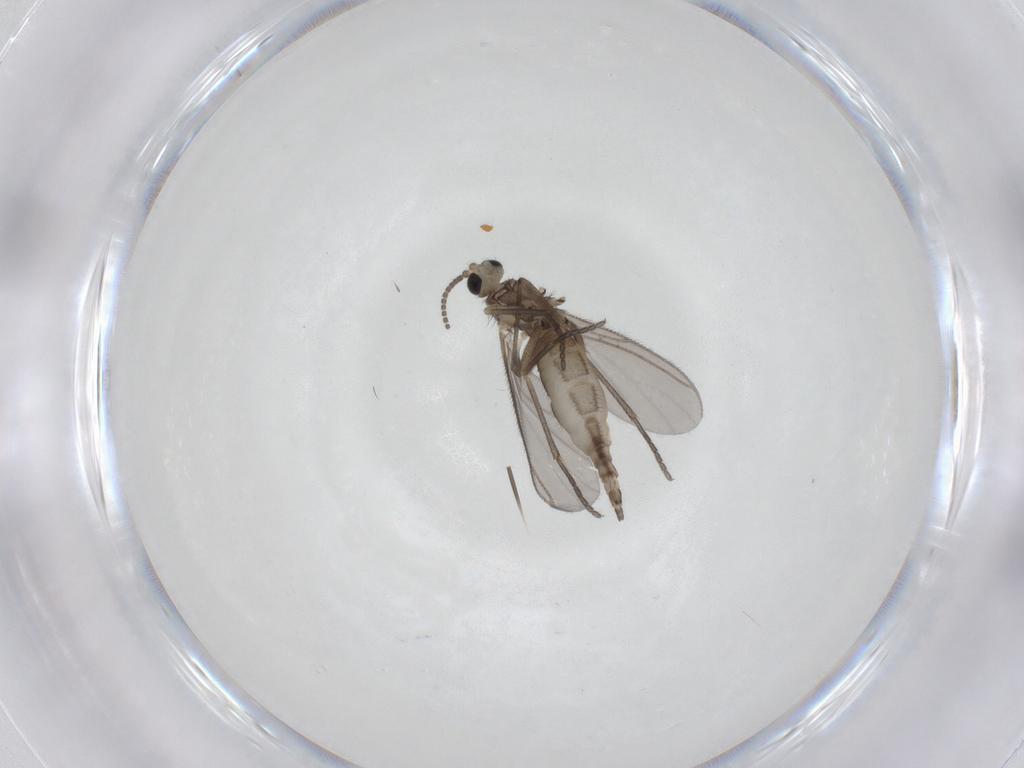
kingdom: Animalia
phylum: Arthropoda
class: Insecta
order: Diptera
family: Sciaridae
